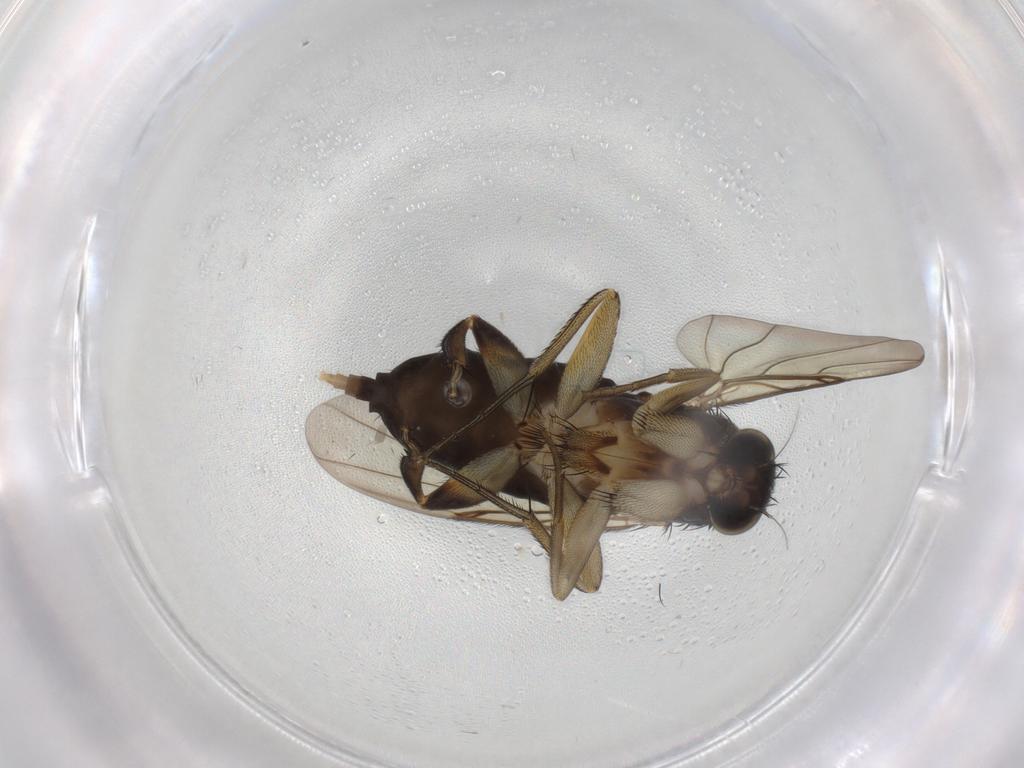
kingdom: Animalia
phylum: Arthropoda
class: Insecta
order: Diptera
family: Phoridae
